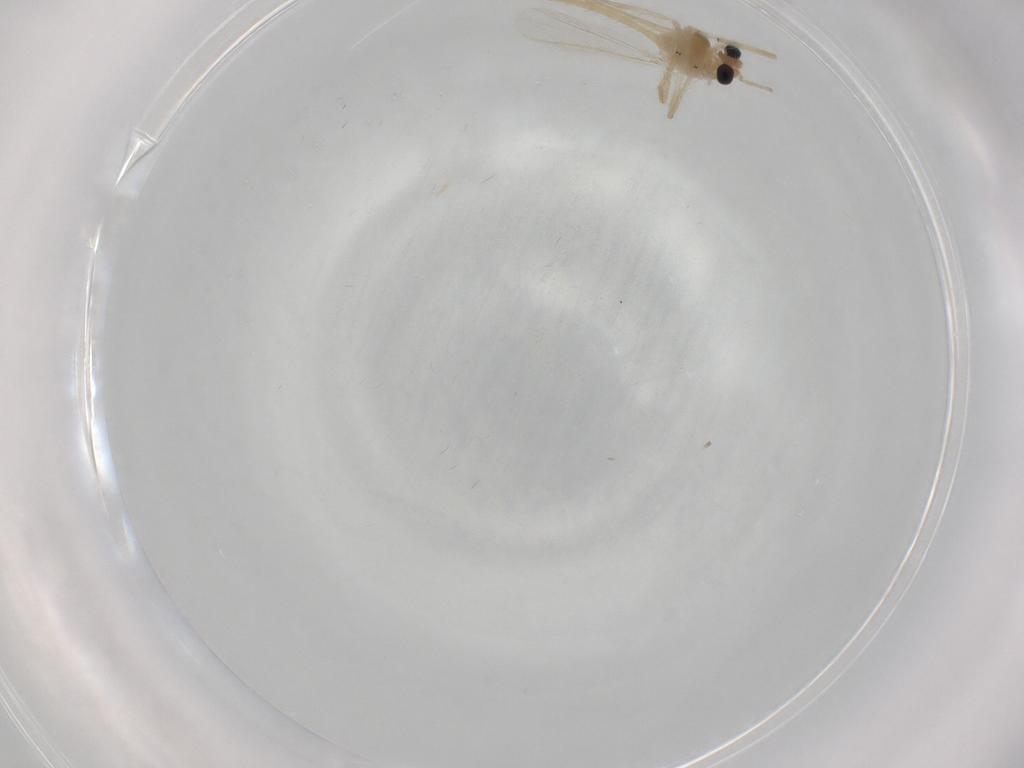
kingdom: Animalia
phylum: Arthropoda
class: Insecta
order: Diptera
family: Chironomidae
